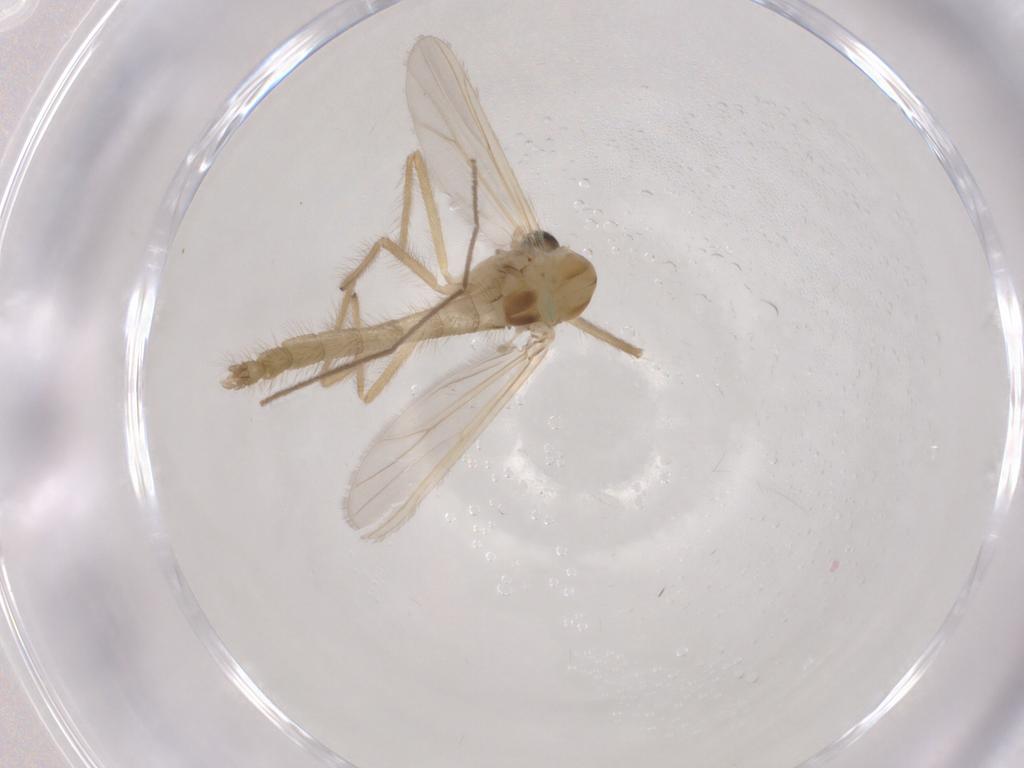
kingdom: Animalia
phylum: Arthropoda
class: Insecta
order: Diptera
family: Chironomidae
